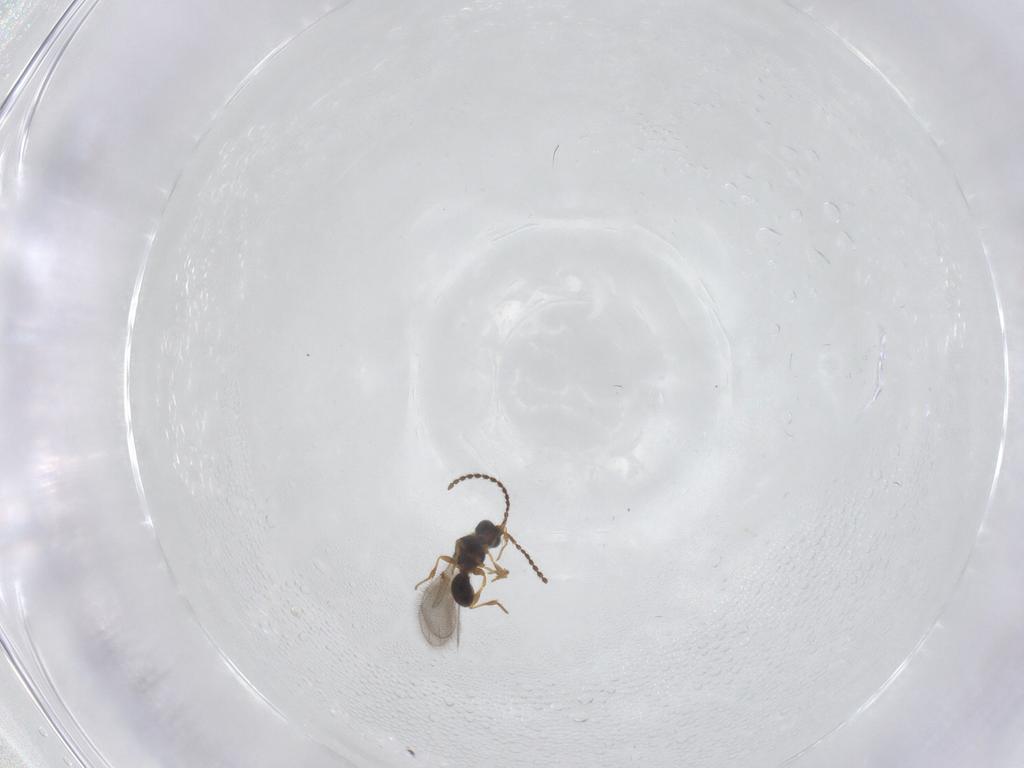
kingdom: Animalia
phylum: Arthropoda
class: Insecta
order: Hymenoptera
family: Diapriidae
